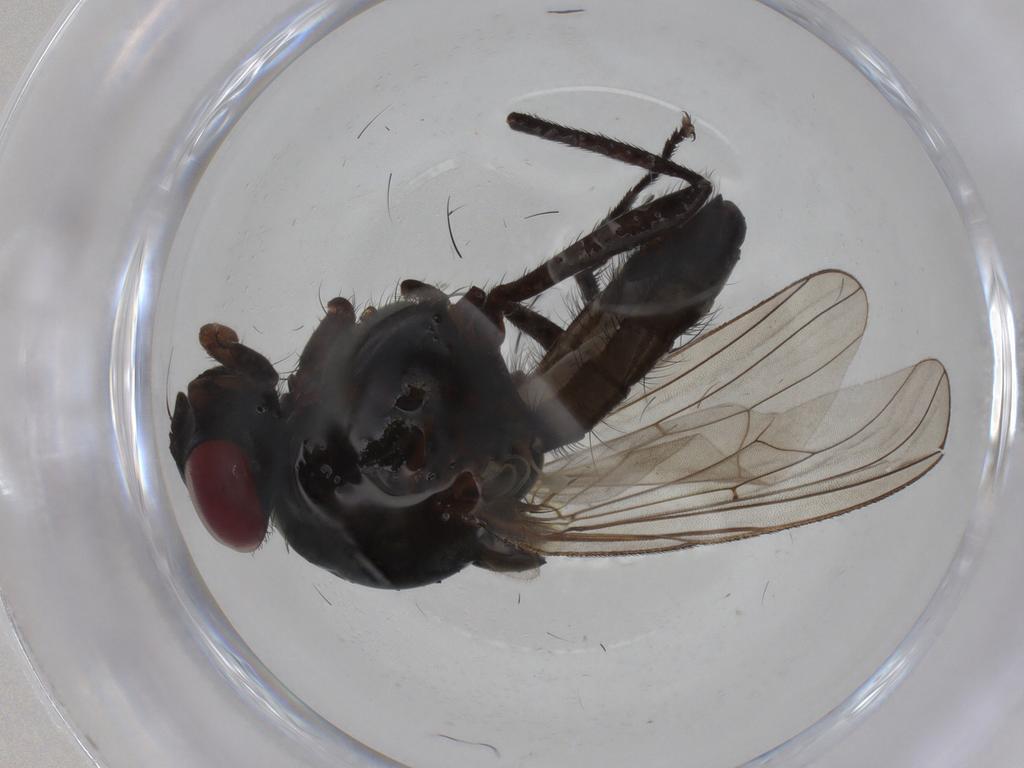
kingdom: Animalia
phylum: Arthropoda
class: Insecta
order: Diptera
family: Anthomyiidae
